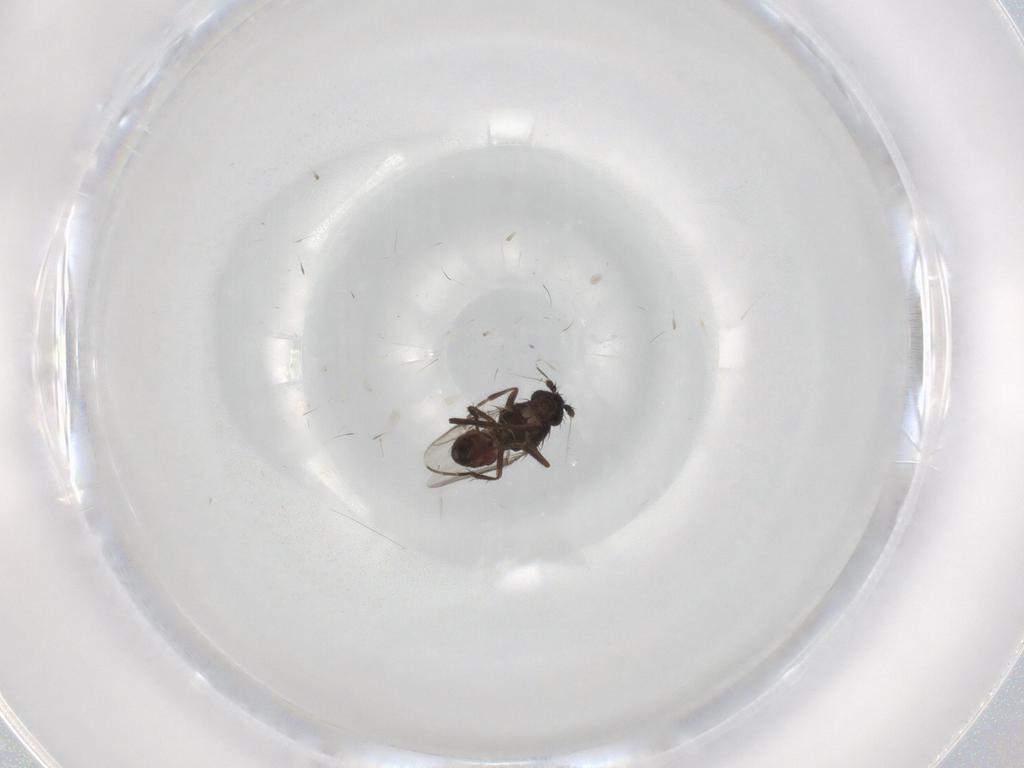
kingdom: Animalia
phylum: Arthropoda
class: Insecta
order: Diptera
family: Sphaeroceridae
